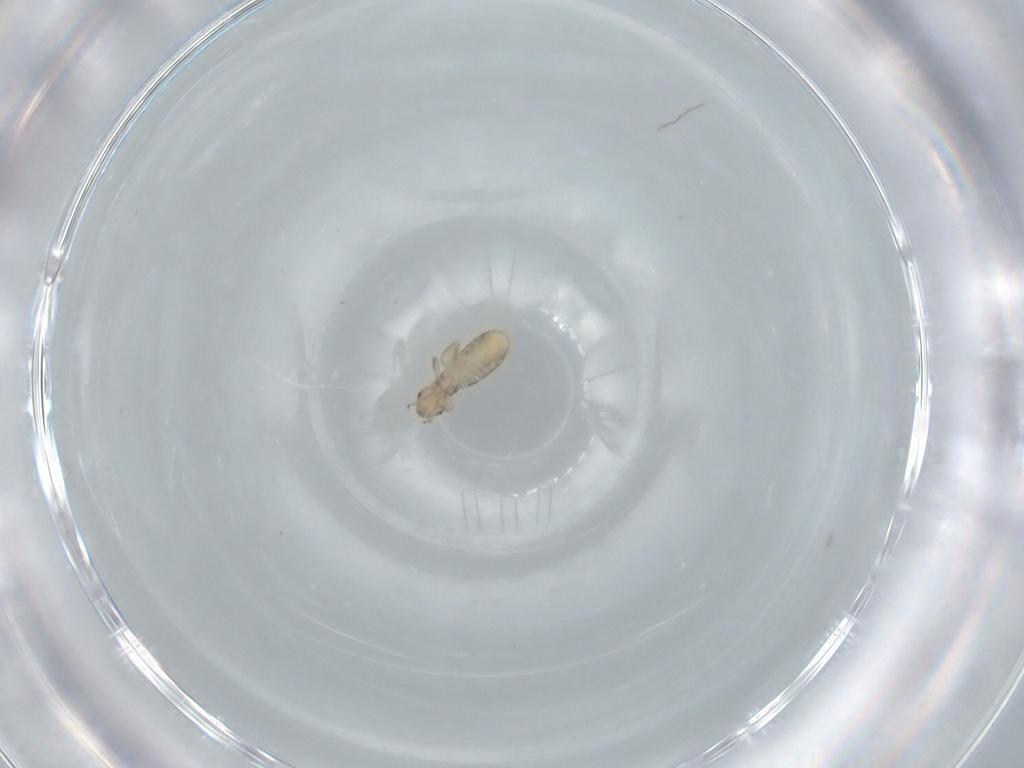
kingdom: Animalia
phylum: Arthropoda
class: Insecta
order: Psocodea
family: Liposcelididae
